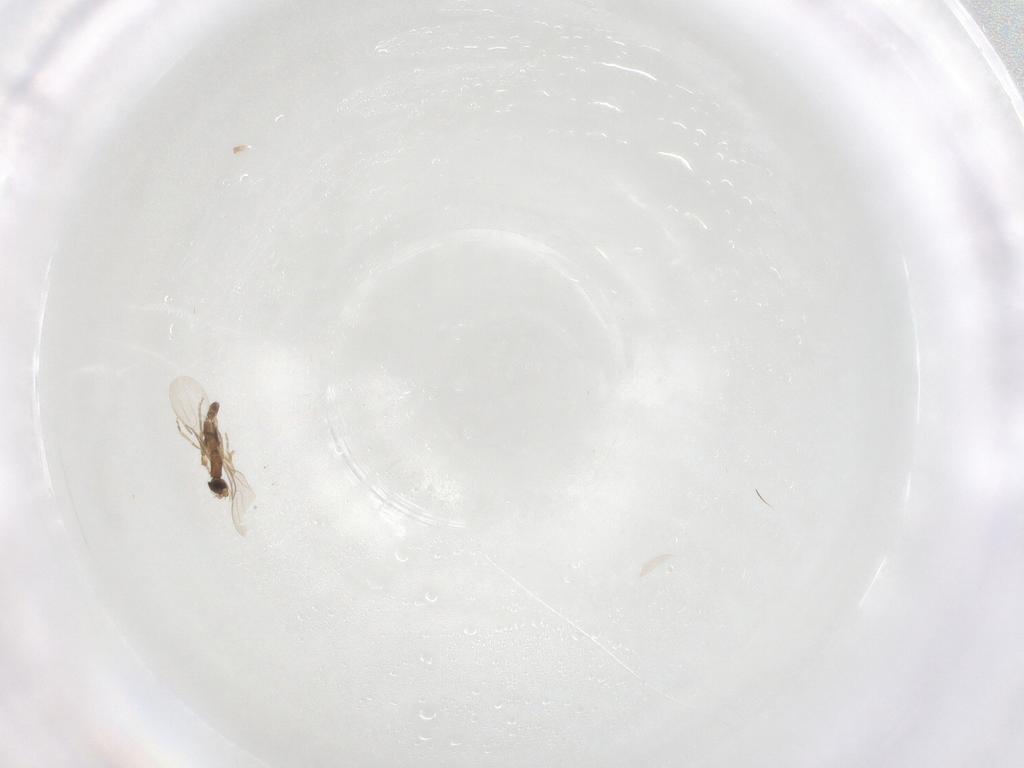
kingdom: Animalia
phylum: Arthropoda
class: Insecta
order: Diptera
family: Phoridae
